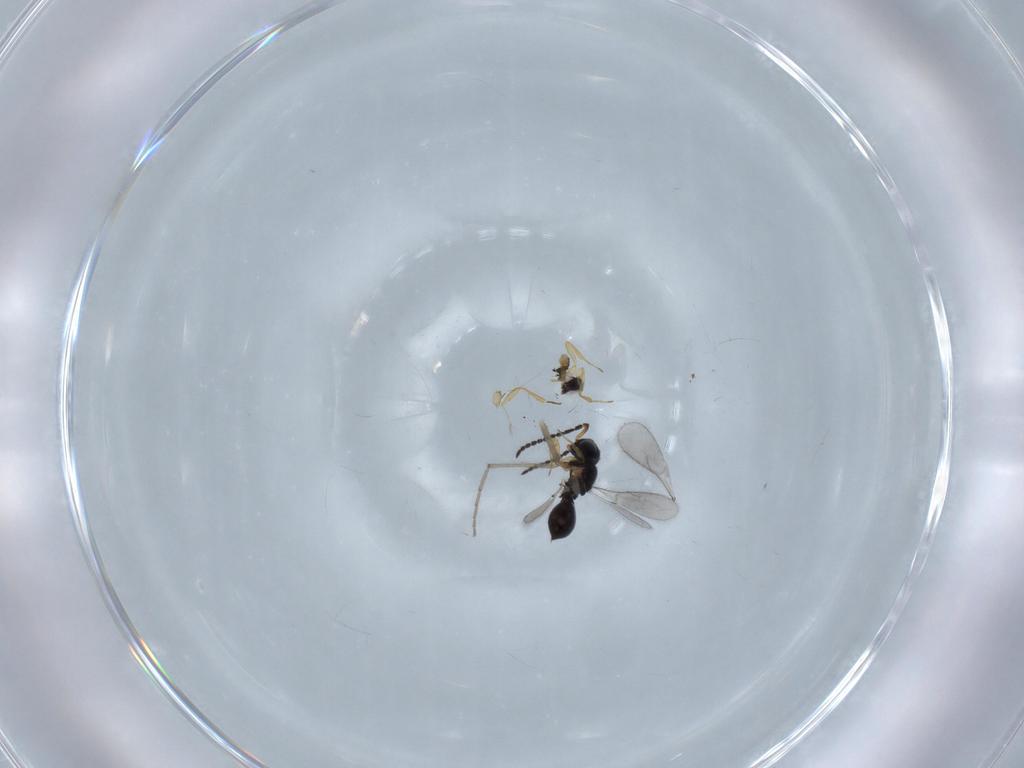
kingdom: Animalia
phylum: Arthropoda
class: Insecta
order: Hymenoptera
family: Scelionidae
